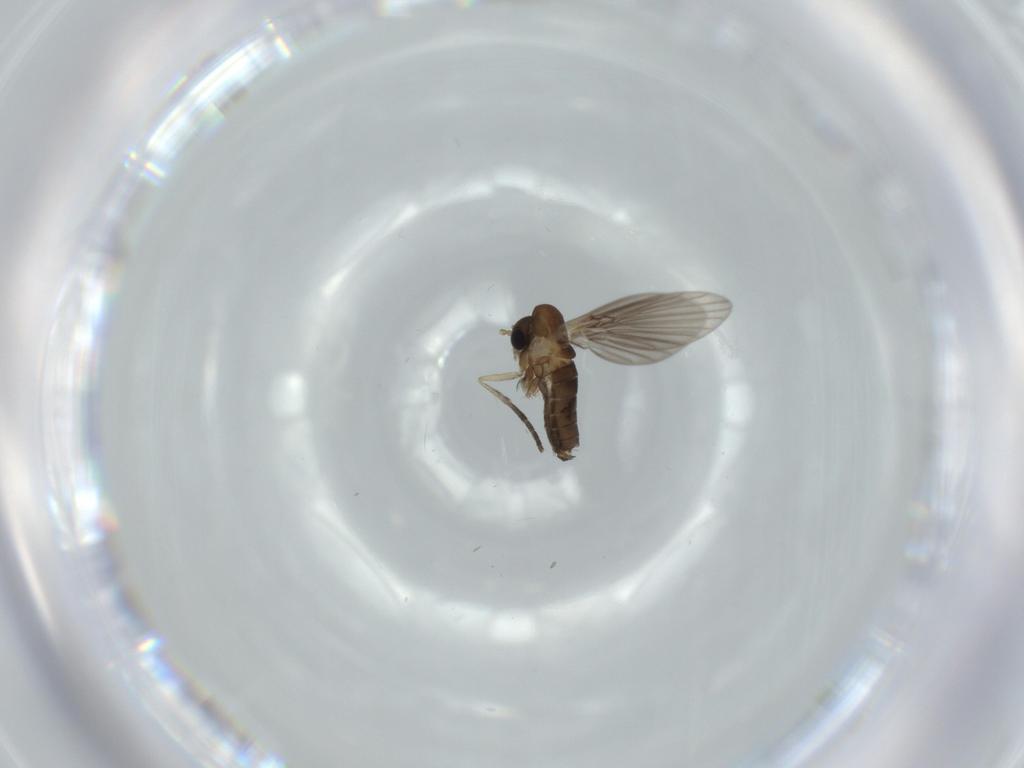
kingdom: Animalia
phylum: Arthropoda
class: Insecta
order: Diptera
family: Psychodidae
